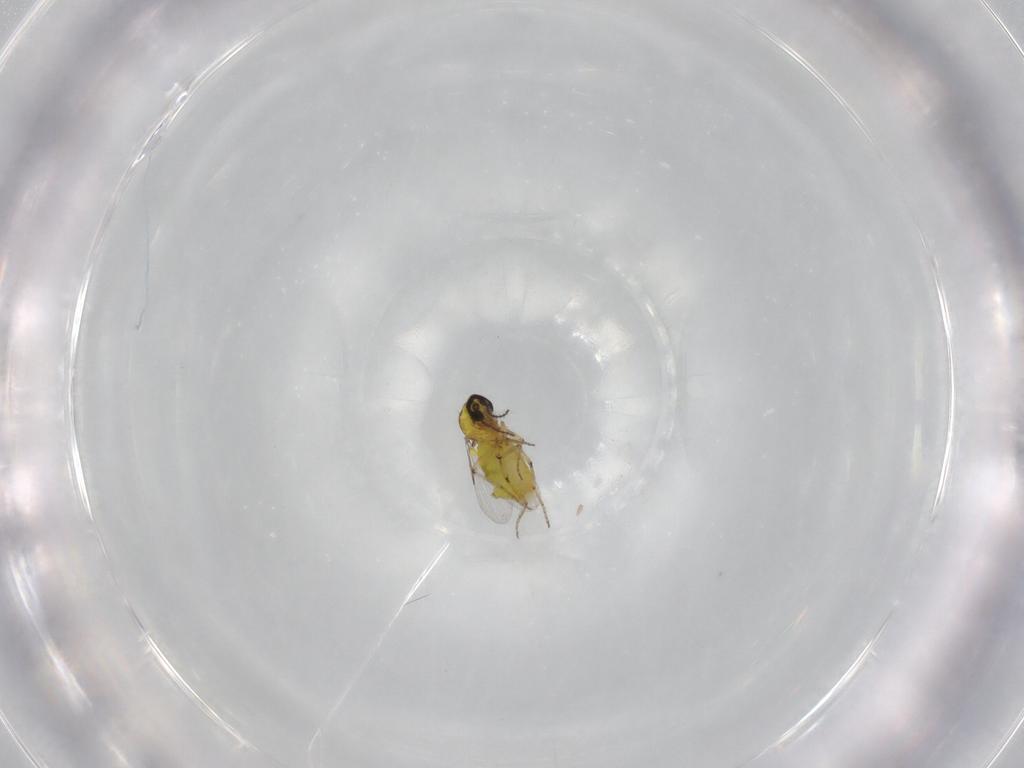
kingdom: Animalia
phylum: Arthropoda
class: Insecta
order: Diptera
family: Ceratopogonidae
